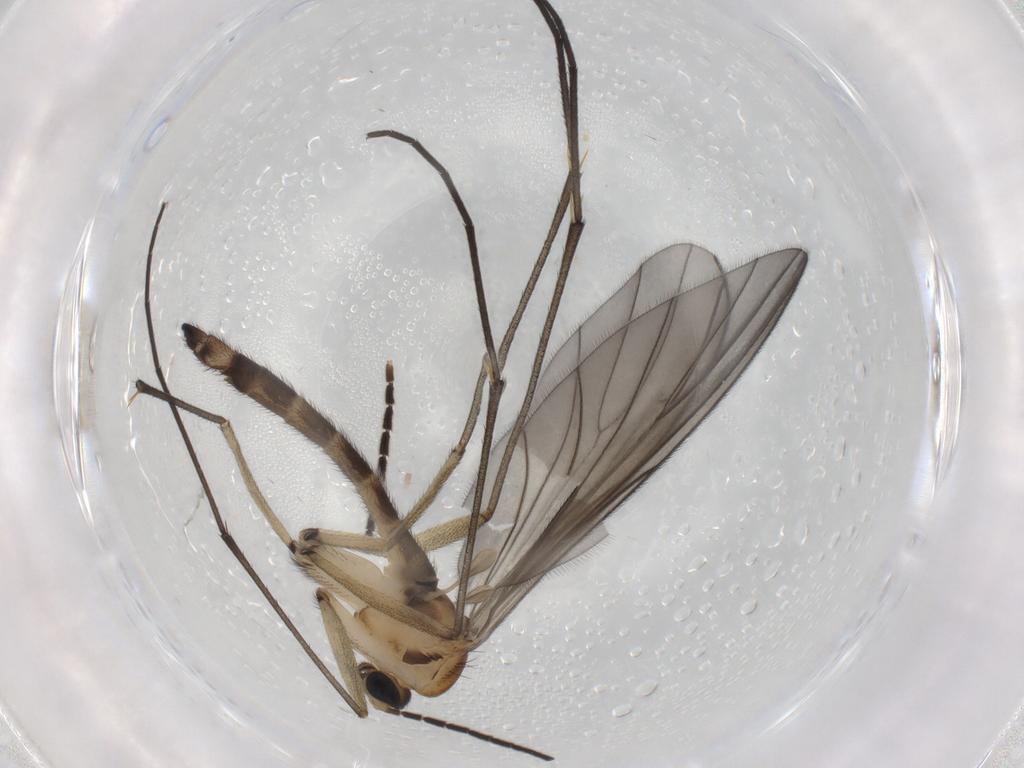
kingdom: Animalia
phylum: Arthropoda
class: Insecta
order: Diptera
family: Sciaridae
